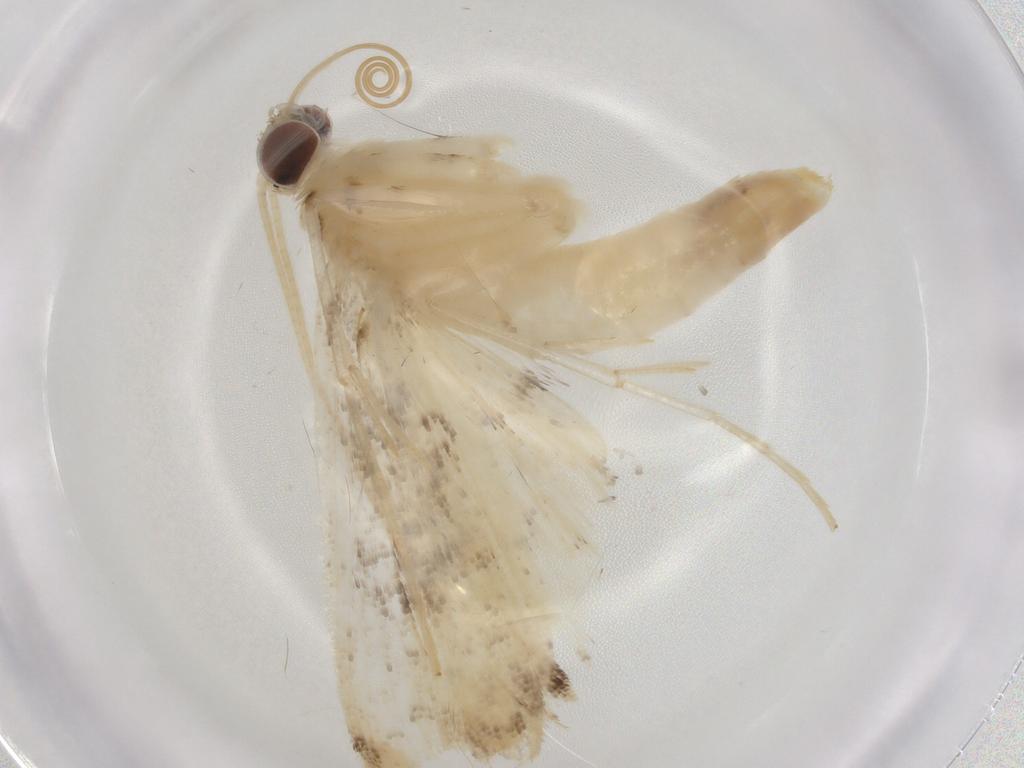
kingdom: Animalia
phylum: Arthropoda
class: Insecta
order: Lepidoptera
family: Crambidae
